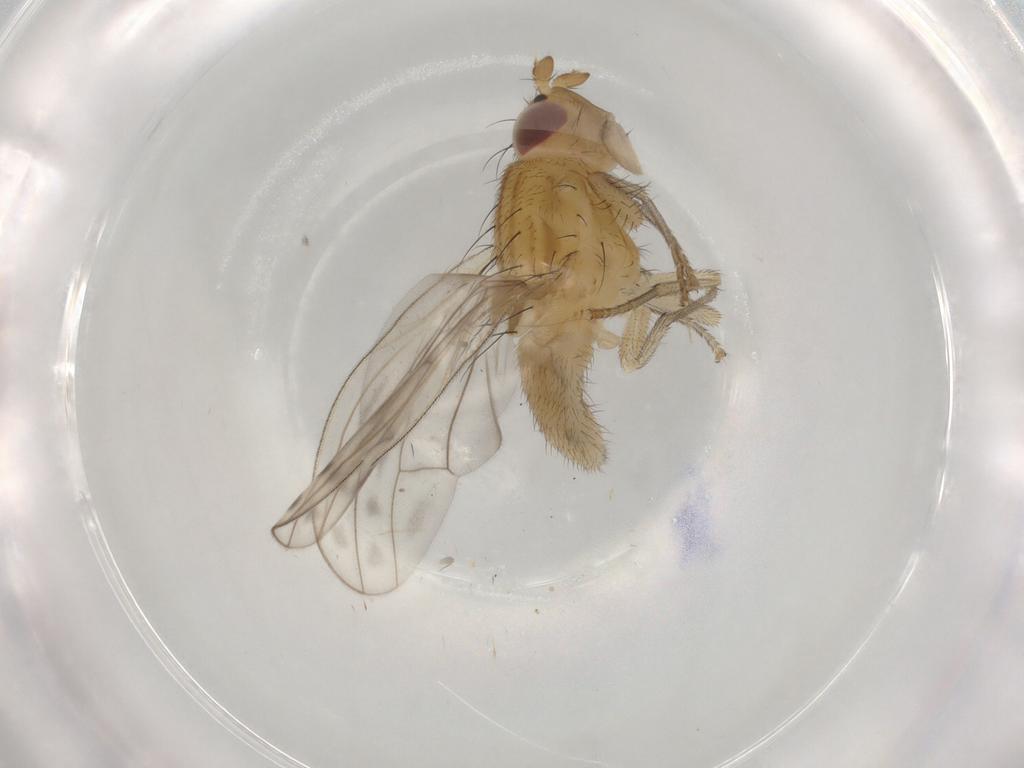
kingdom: Animalia
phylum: Arthropoda
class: Insecta
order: Diptera
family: Lauxaniidae
